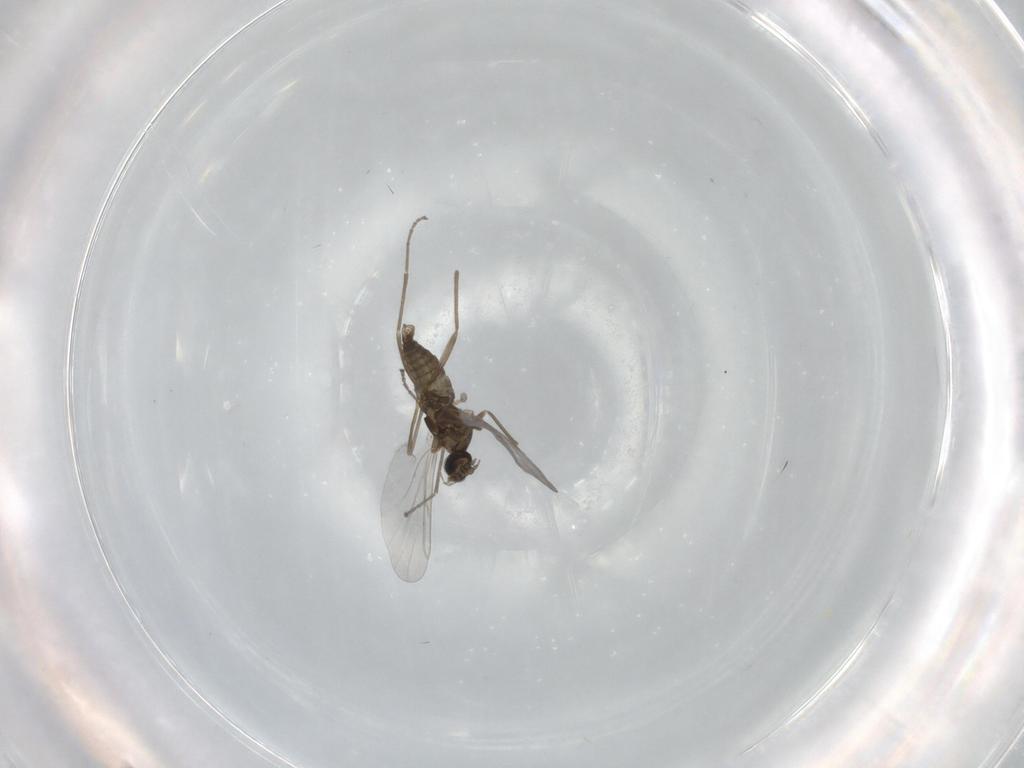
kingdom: Animalia
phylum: Arthropoda
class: Insecta
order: Diptera
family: Cecidomyiidae
